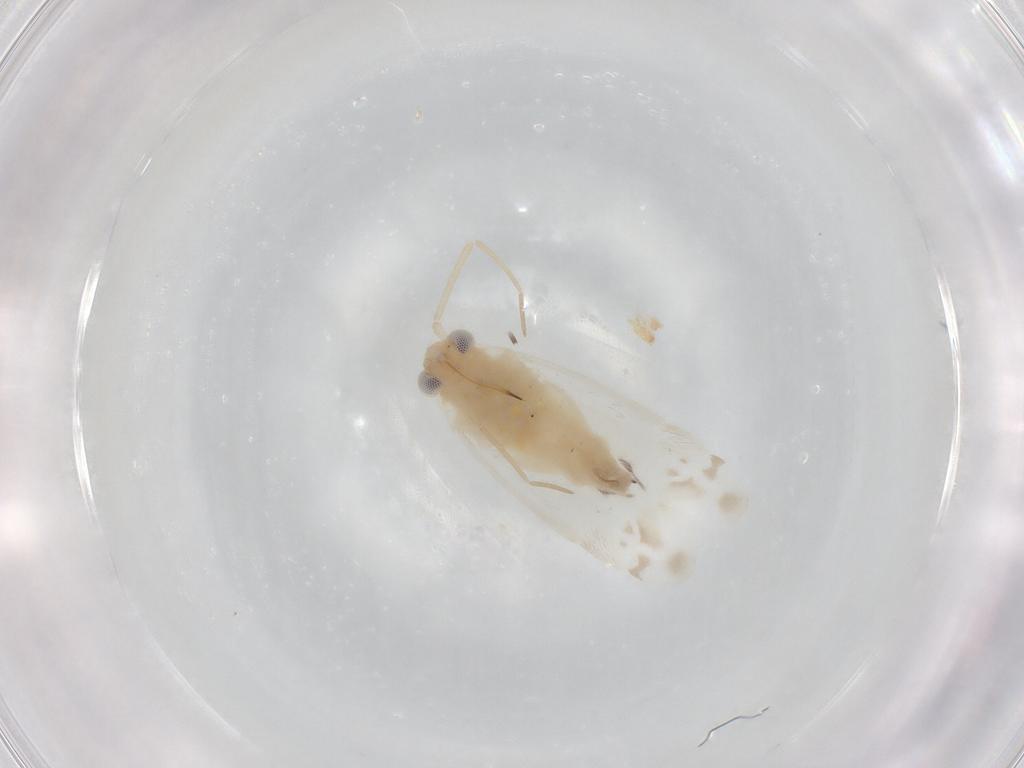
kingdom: Animalia
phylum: Arthropoda
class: Insecta
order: Hemiptera
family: Miridae
